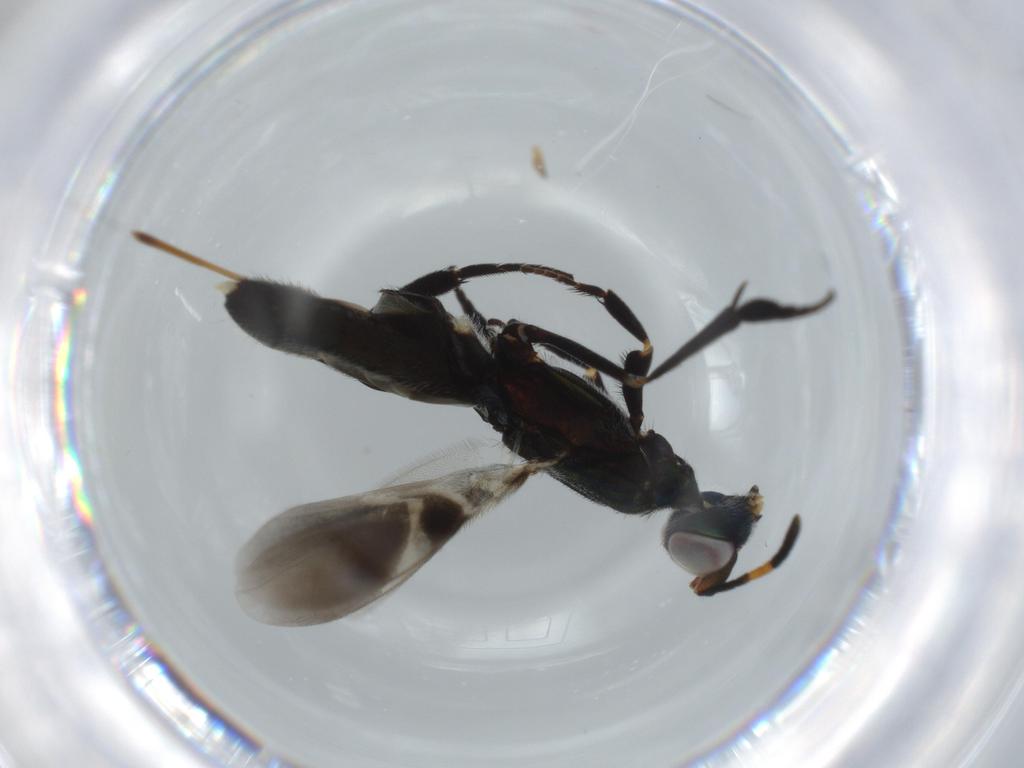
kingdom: Animalia
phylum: Arthropoda
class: Insecta
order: Hymenoptera
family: Eupelmidae
